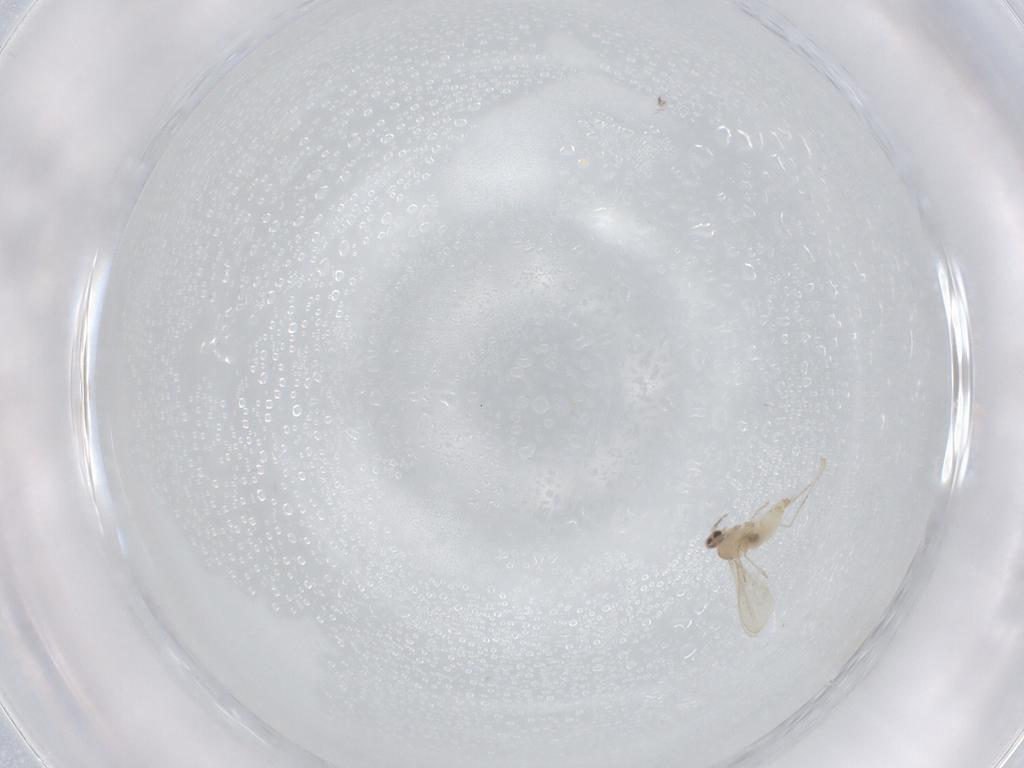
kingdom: Animalia
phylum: Arthropoda
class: Insecta
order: Diptera
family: Cecidomyiidae
